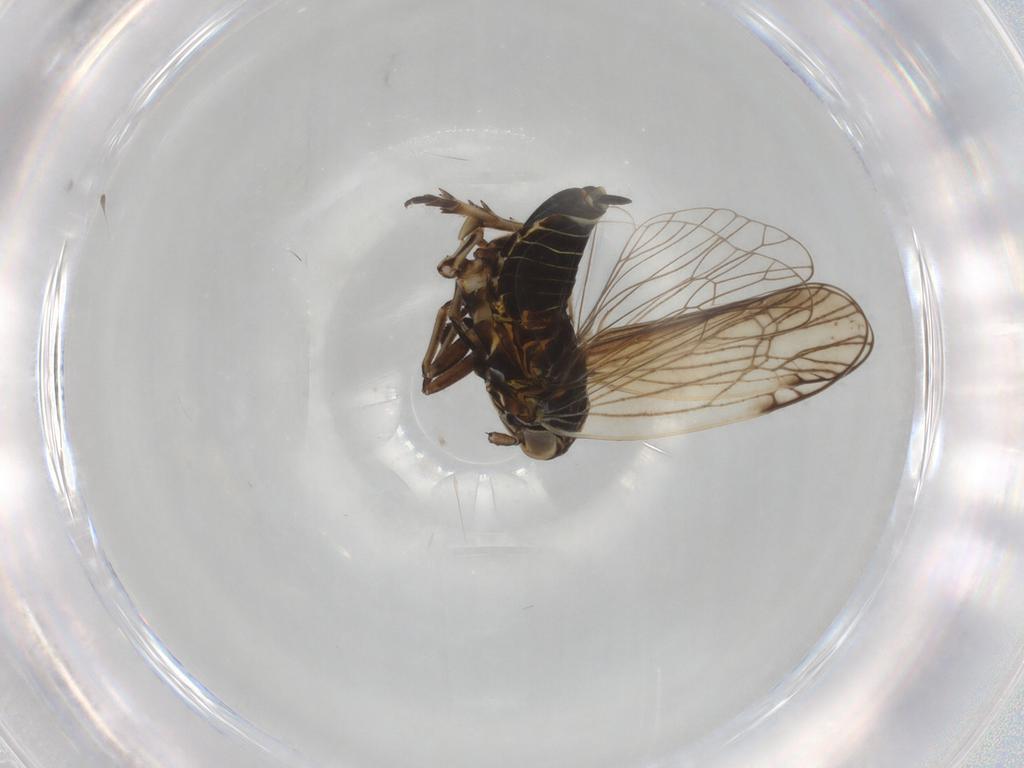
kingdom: Animalia
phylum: Arthropoda
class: Insecta
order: Hemiptera
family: Delphacidae
